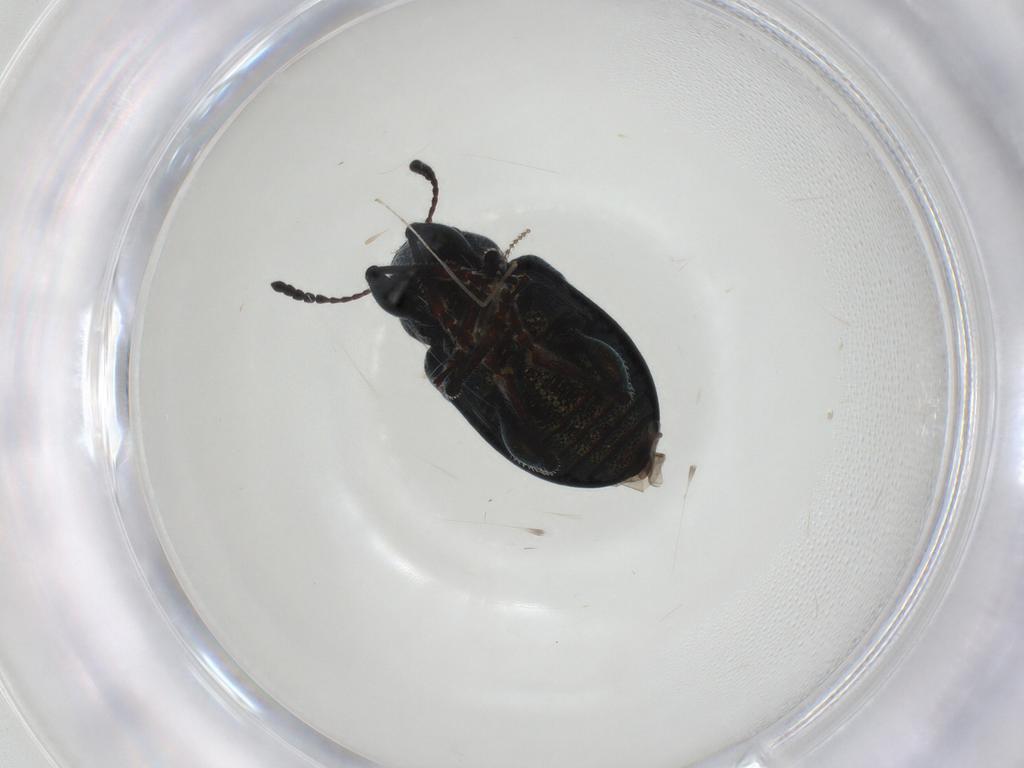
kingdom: Animalia
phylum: Arthropoda
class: Insecta
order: Coleoptera
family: Chrysomelidae
